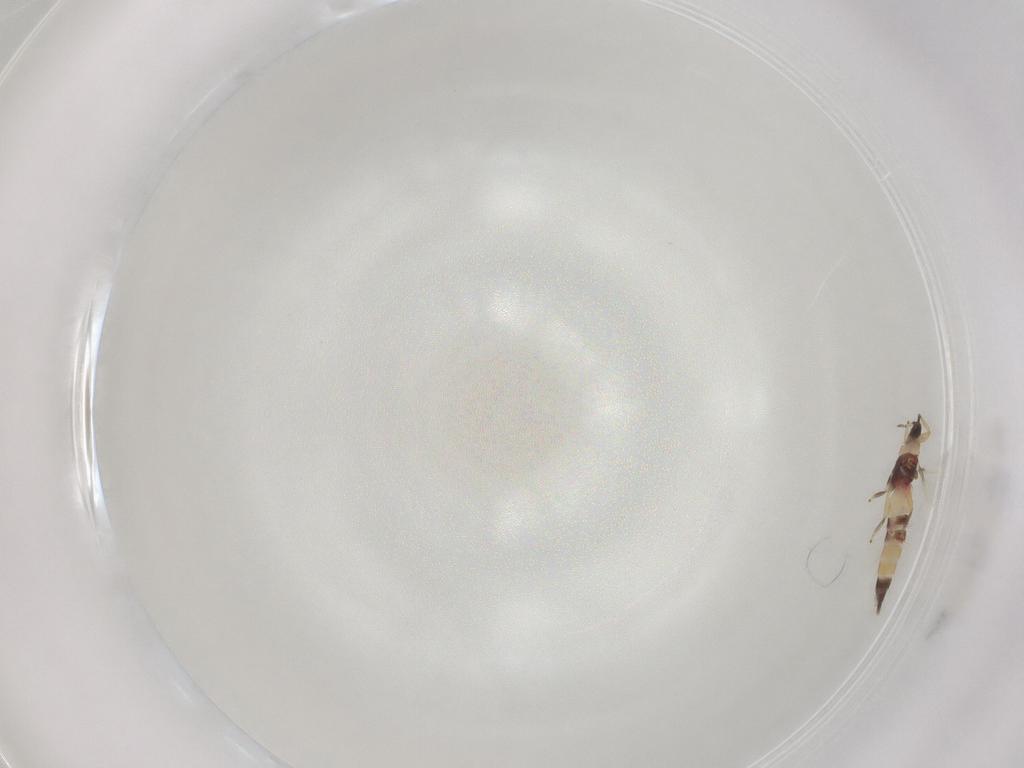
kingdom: Animalia
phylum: Arthropoda
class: Insecta
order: Thysanoptera
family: Phlaeothripidae
